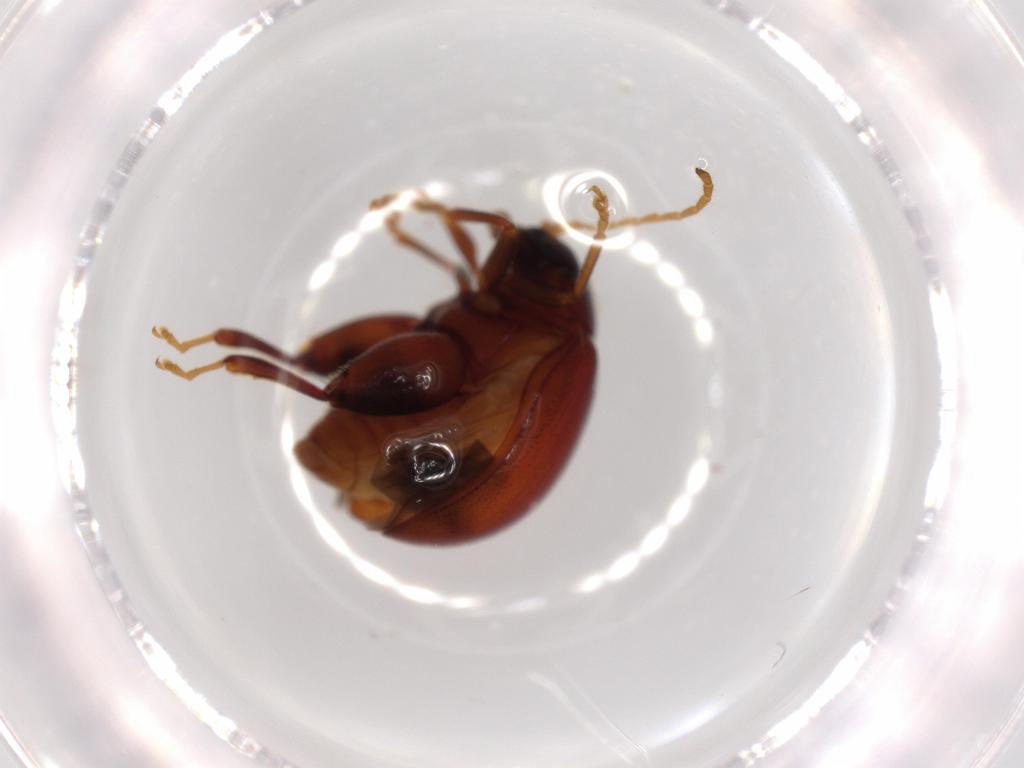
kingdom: Animalia
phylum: Arthropoda
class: Insecta
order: Coleoptera
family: Chrysomelidae
